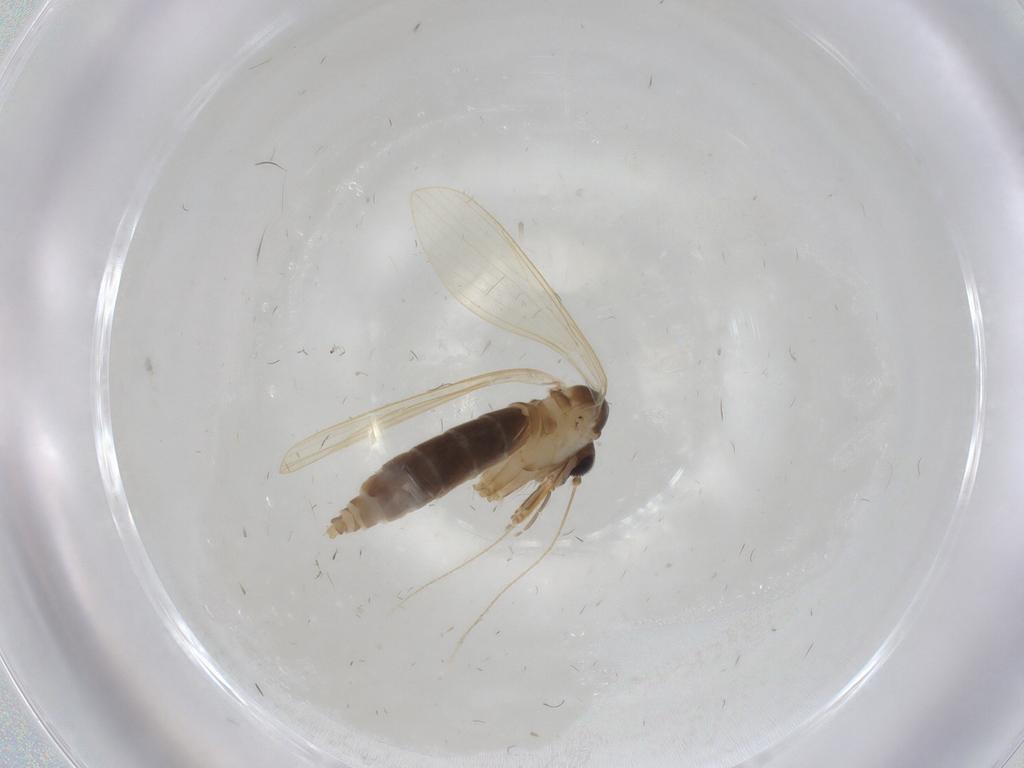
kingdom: Animalia
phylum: Arthropoda
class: Insecta
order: Diptera
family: Psychodidae
